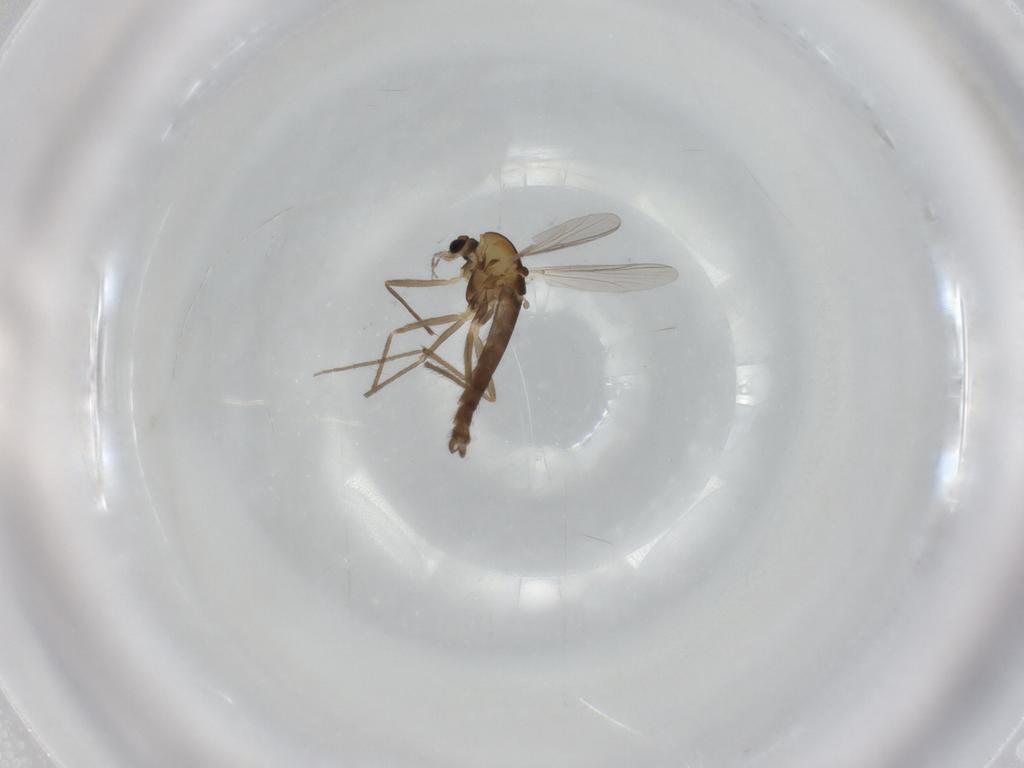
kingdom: Animalia
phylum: Arthropoda
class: Insecta
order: Diptera
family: Chironomidae
